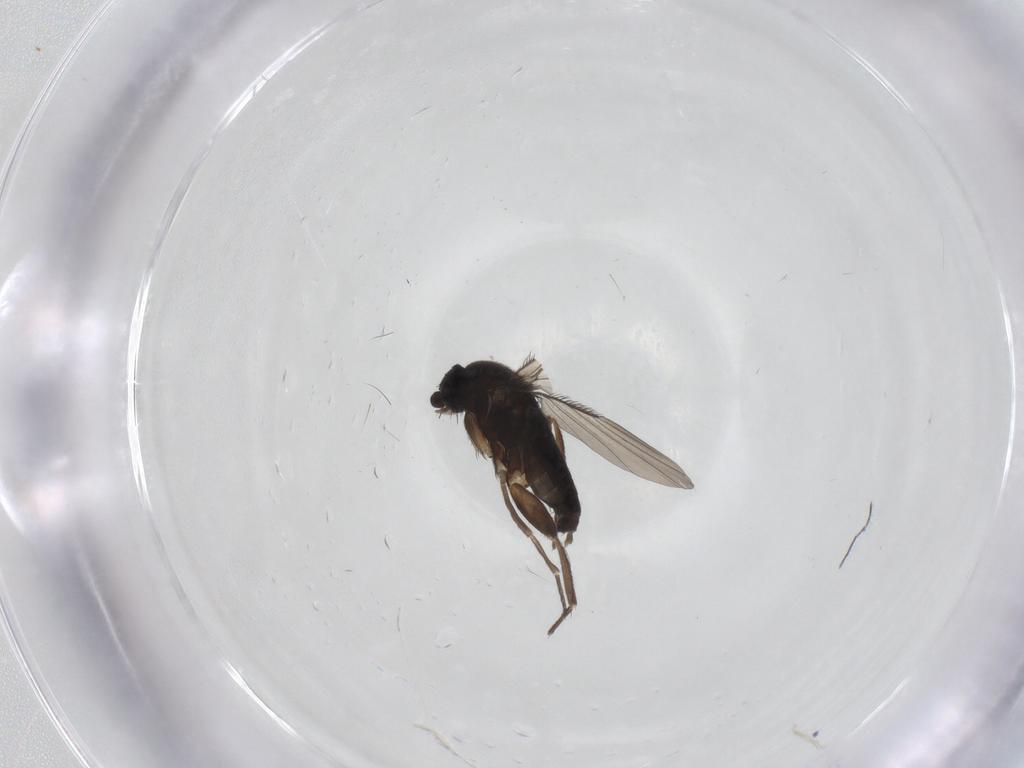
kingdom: Animalia
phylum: Arthropoda
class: Insecta
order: Diptera
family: Phoridae
